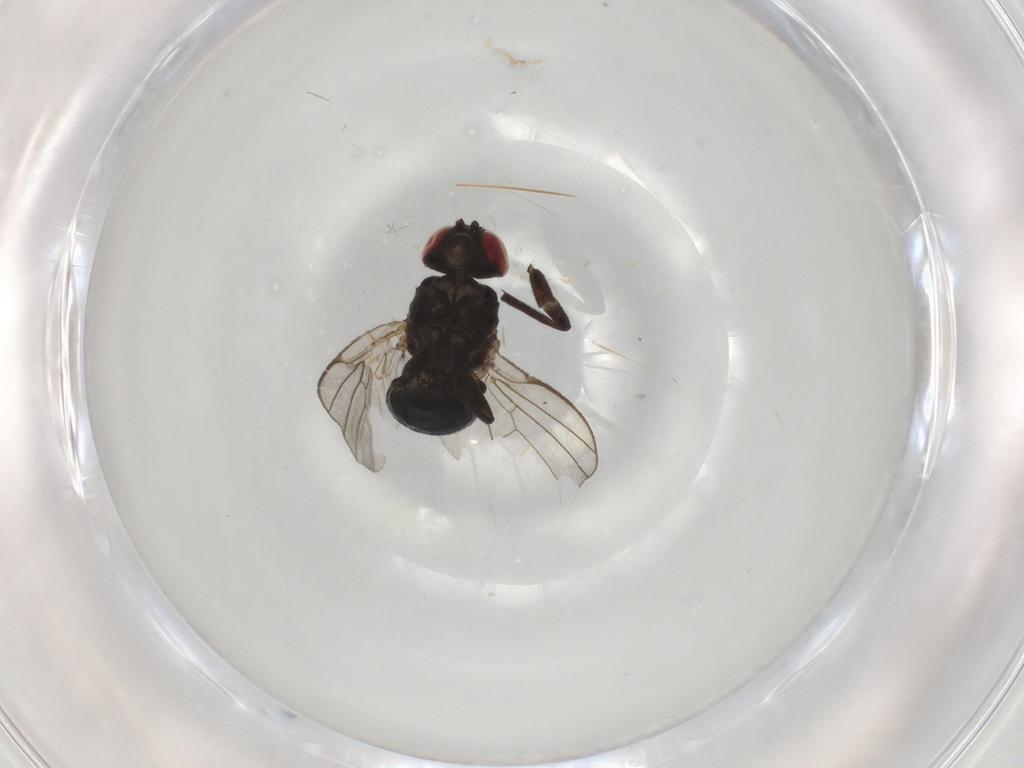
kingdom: Animalia
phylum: Arthropoda
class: Insecta
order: Diptera
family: Agromyzidae
